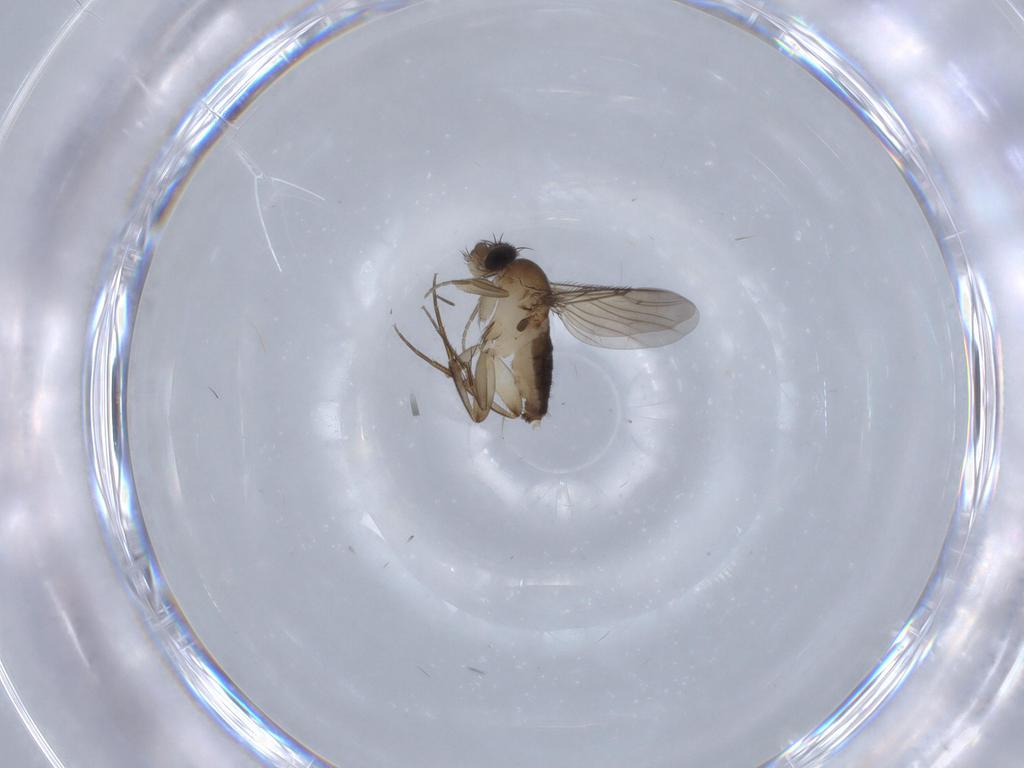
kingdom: Animalia
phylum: Arthropoda
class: Insecta
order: Diptera
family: Phoridae
